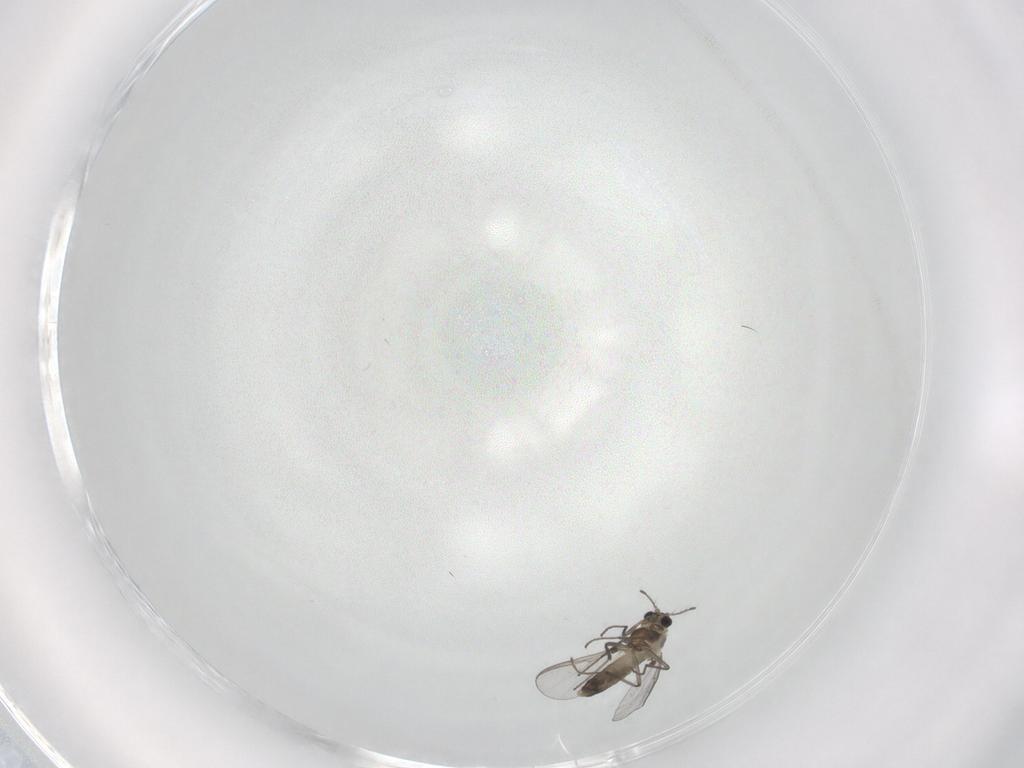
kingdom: Animalia
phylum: Arthropoda
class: Insecta
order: Diptera
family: Chironomidae
